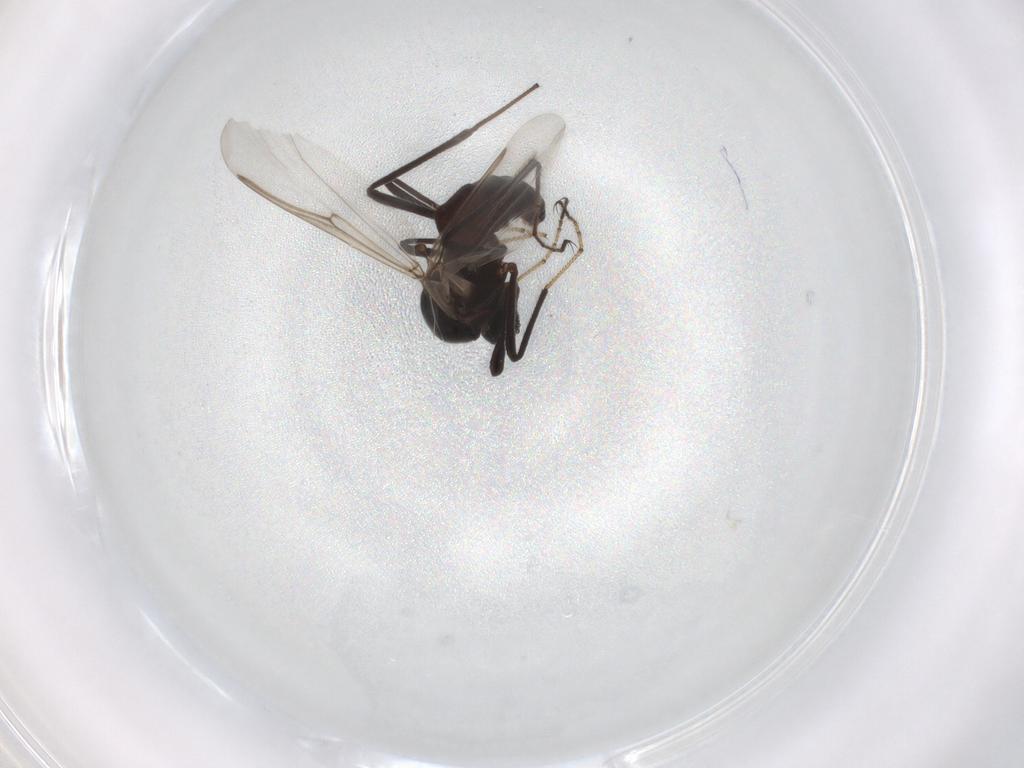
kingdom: Animalia
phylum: Arthropoda
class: Insecta
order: Diptera
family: Ceratopogonidae
